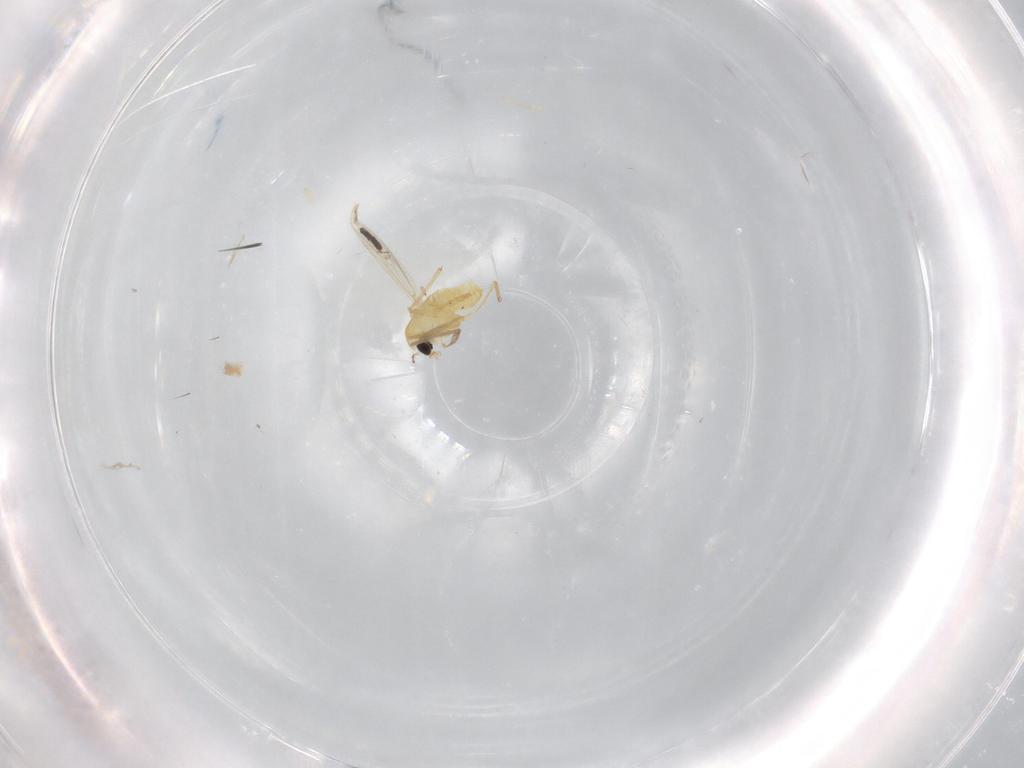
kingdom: Animalia
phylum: Arthropoda
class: Insecta
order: Diptera
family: Chironomidae
